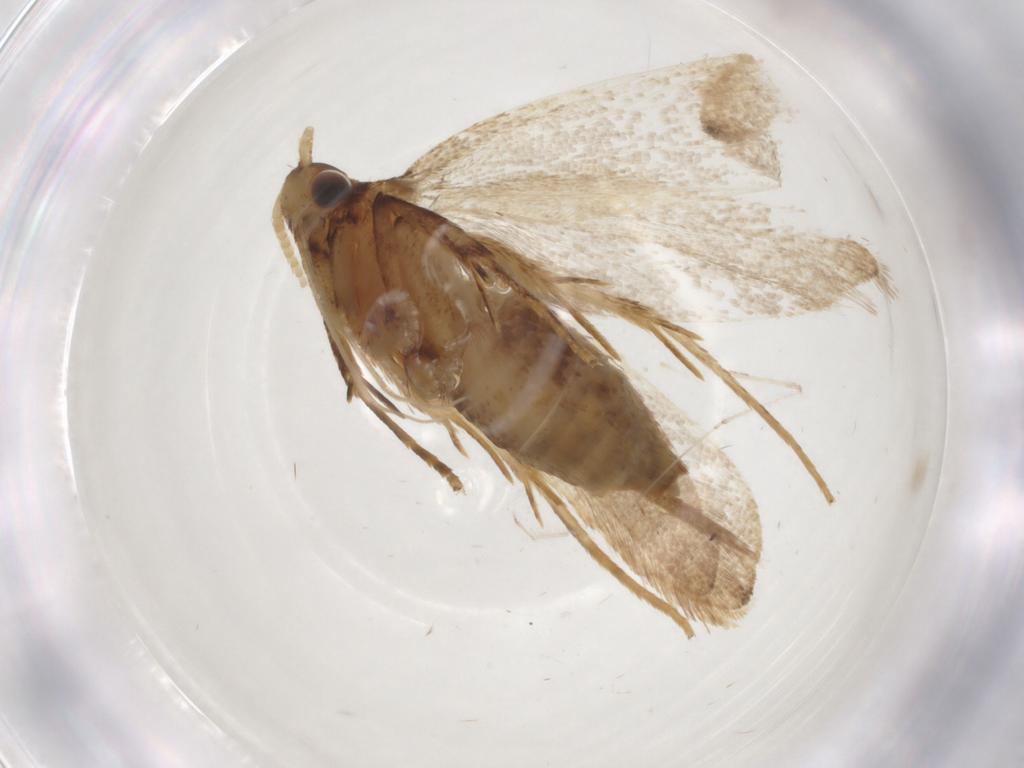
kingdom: Animalia
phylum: Arthropoda
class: Insecta
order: Lepidoptera
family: Lecithoceridae
